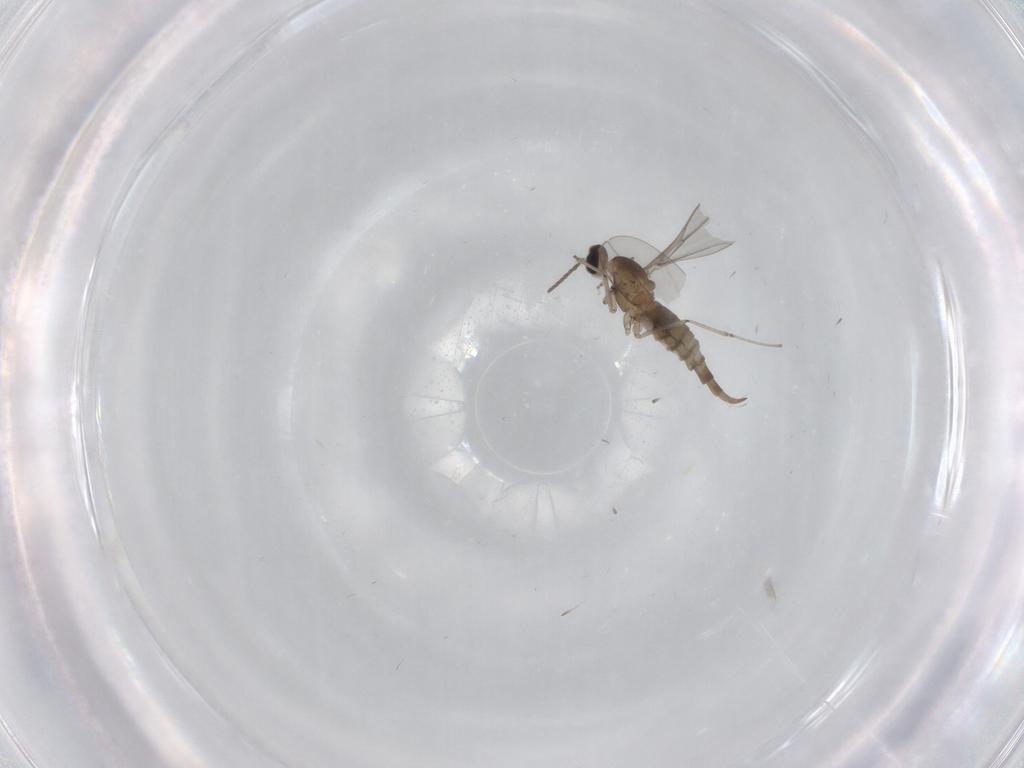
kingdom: Animalia
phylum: Arthropoda
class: Insecta
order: Diptera
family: Cecidomyiidae
